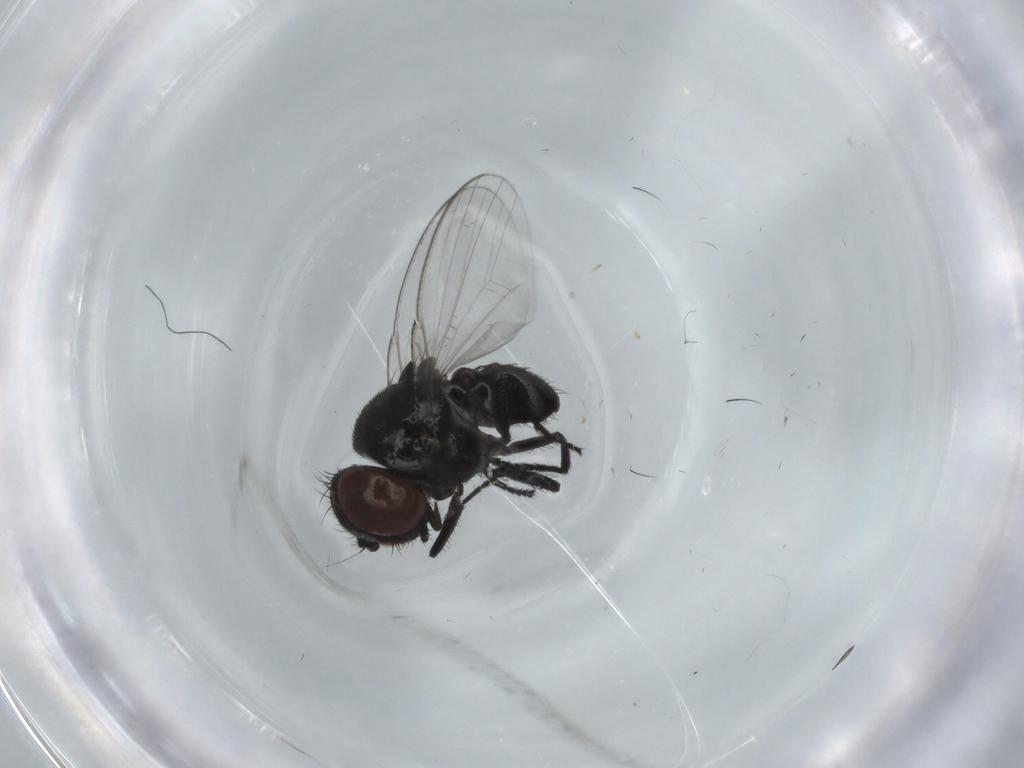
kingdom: Animalia
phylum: Arthropoda
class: Insecta
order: Diptera
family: Milichiidae
